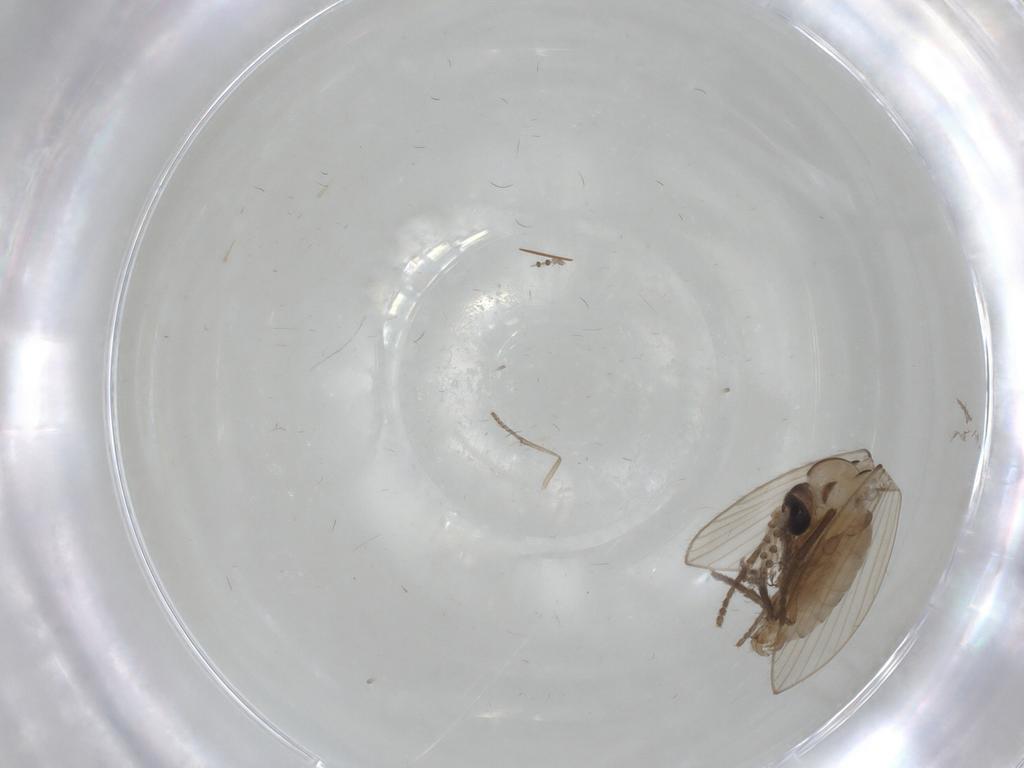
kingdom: Animalia
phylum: Arthropoda
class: Insecta
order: Diptera
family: Psychodidae
